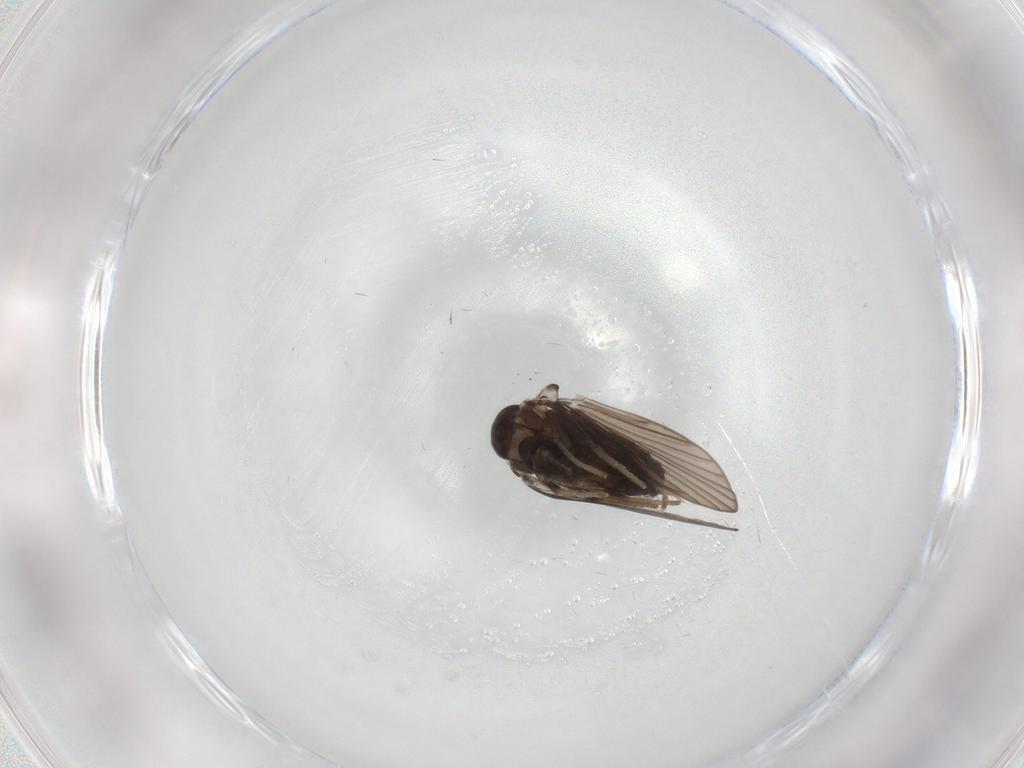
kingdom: Animalia
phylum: Arthropoda
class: Insecta
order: Diptera
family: Psychodidae
